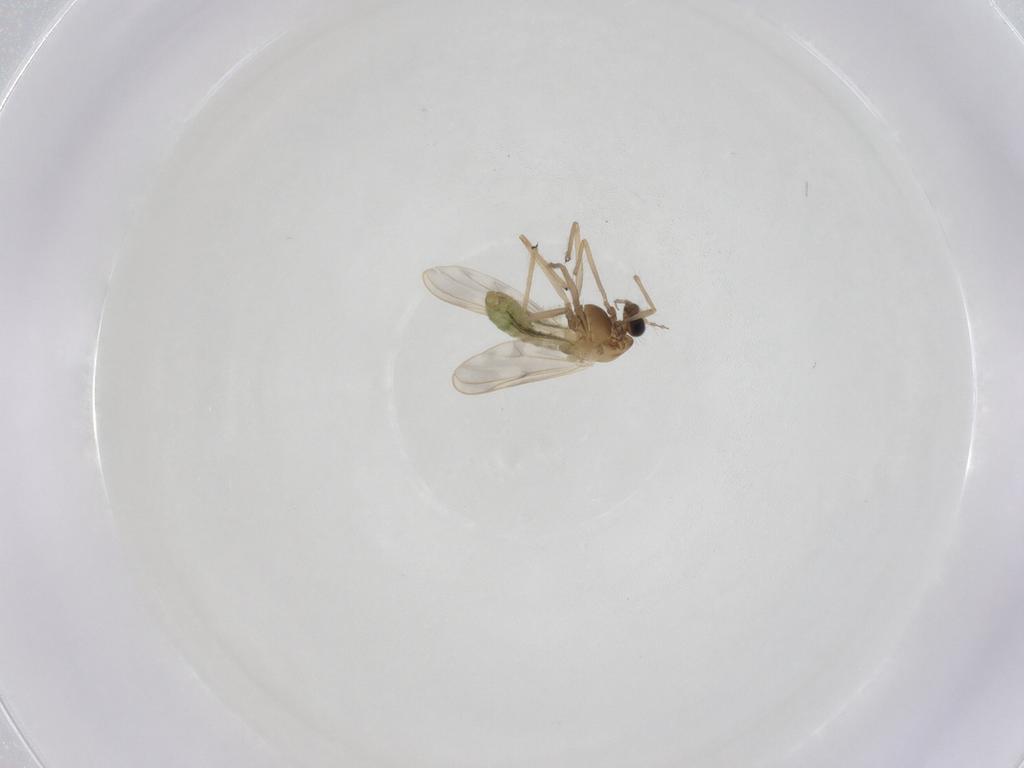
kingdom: Animalia
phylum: Arthropoda
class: Insecta
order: Diptera
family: Chironomidae
